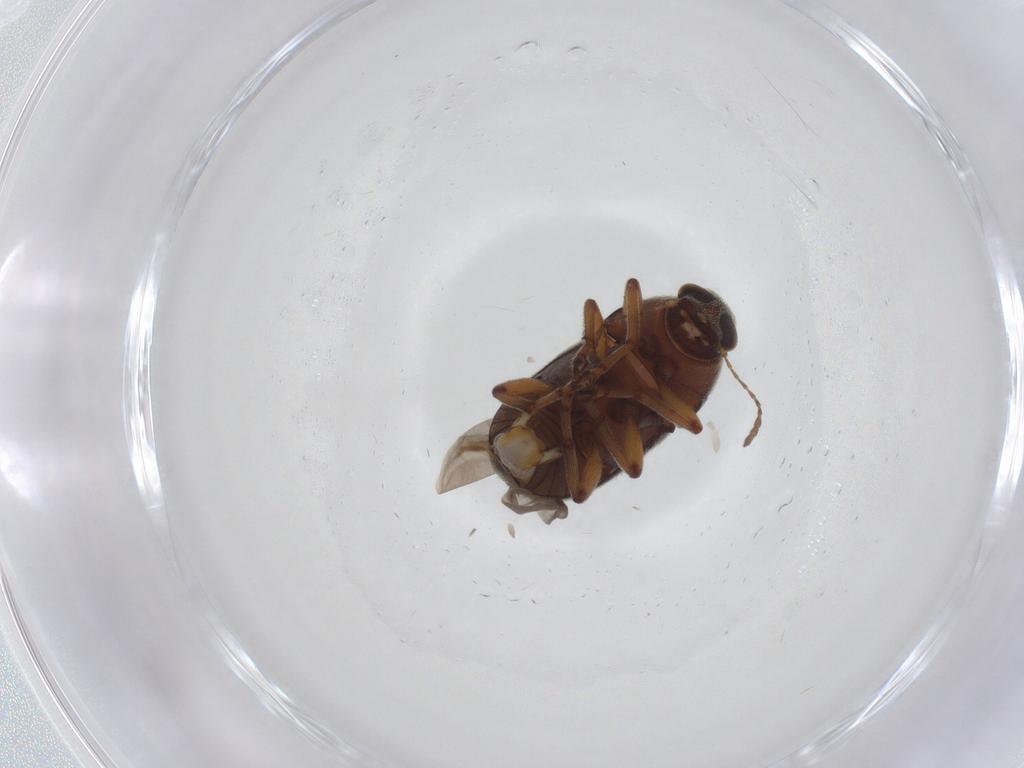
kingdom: Animalia
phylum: Arthropoda
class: Insecta
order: Coleoptera
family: Anthribidae
